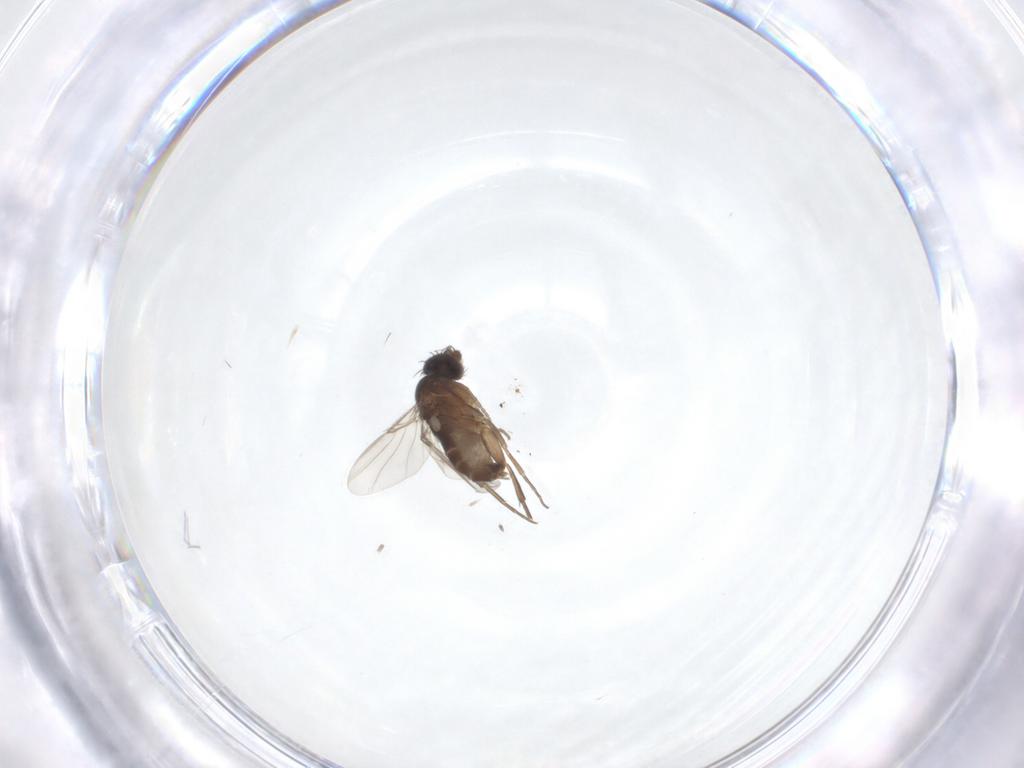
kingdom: Animalia
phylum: Arthropoda
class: Insecta
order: Diptera
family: Phoridae
